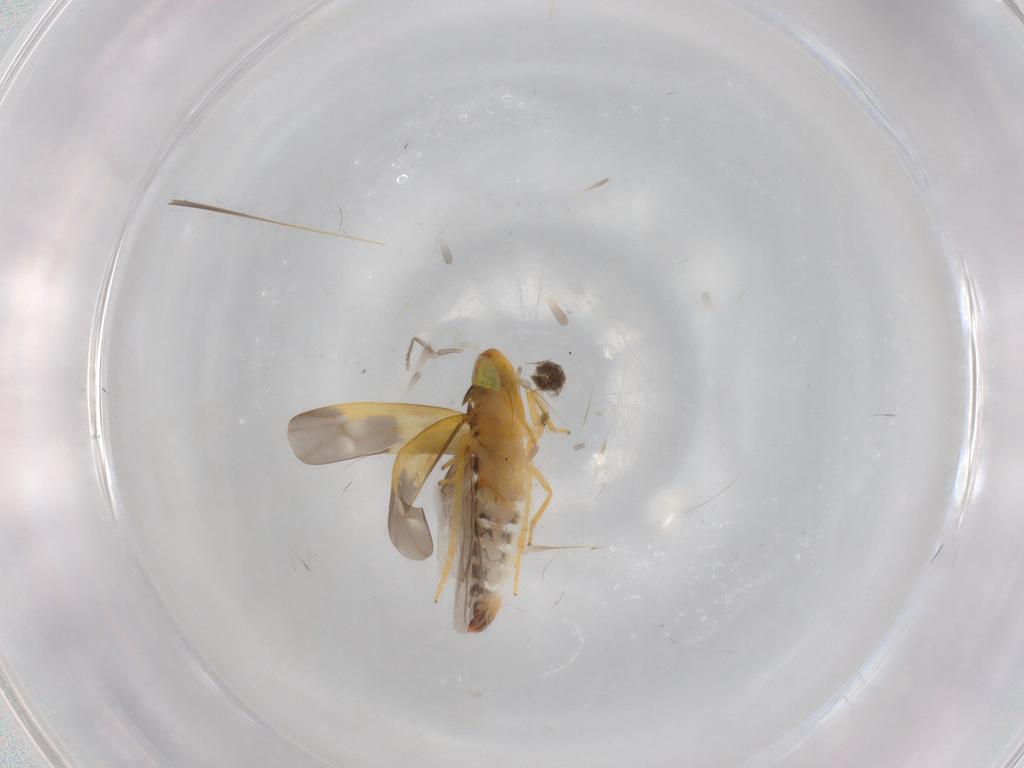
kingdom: Animalia
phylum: Arthropoda
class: Insecta
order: Hemiptera
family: Cicadellidae
